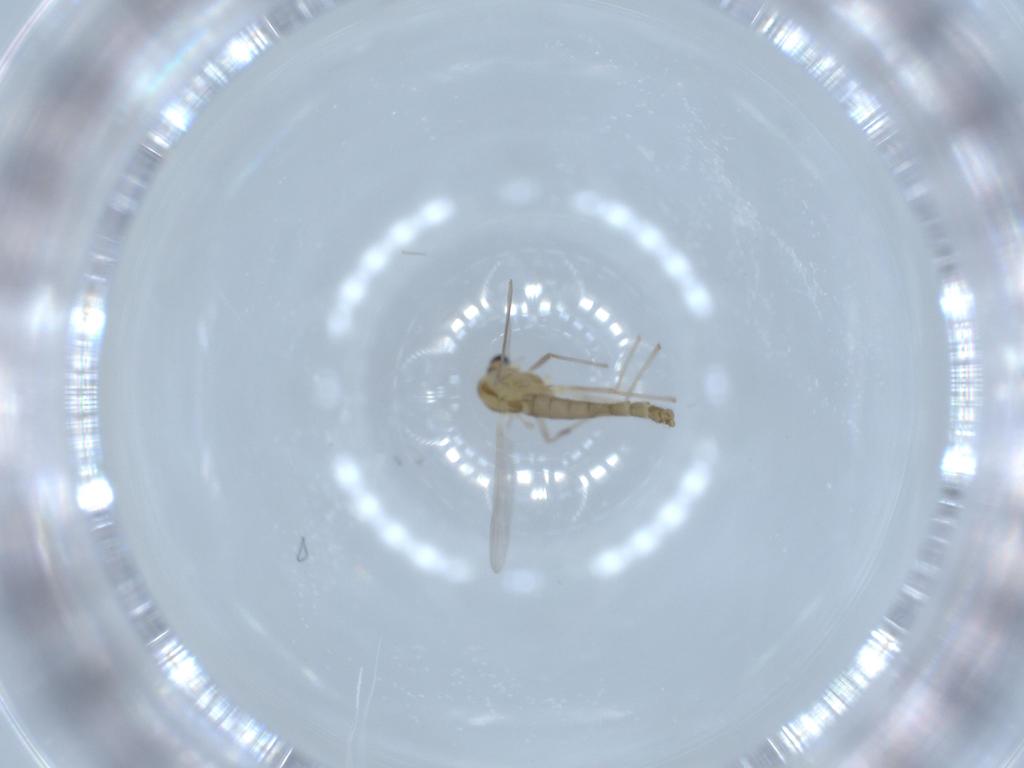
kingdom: Animalia
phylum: Arthropoda
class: Insecta
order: Diptera
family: Chironomidae
